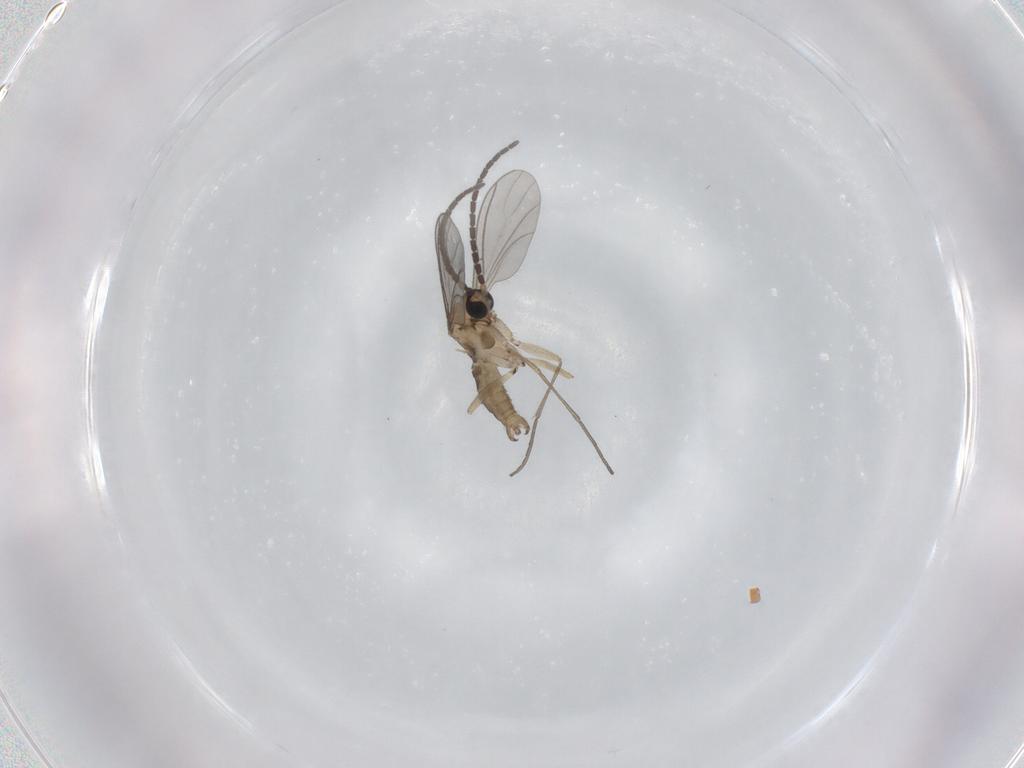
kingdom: Animalia
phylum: Arthropoda
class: Insecta
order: Diptera
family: Sciaridae
